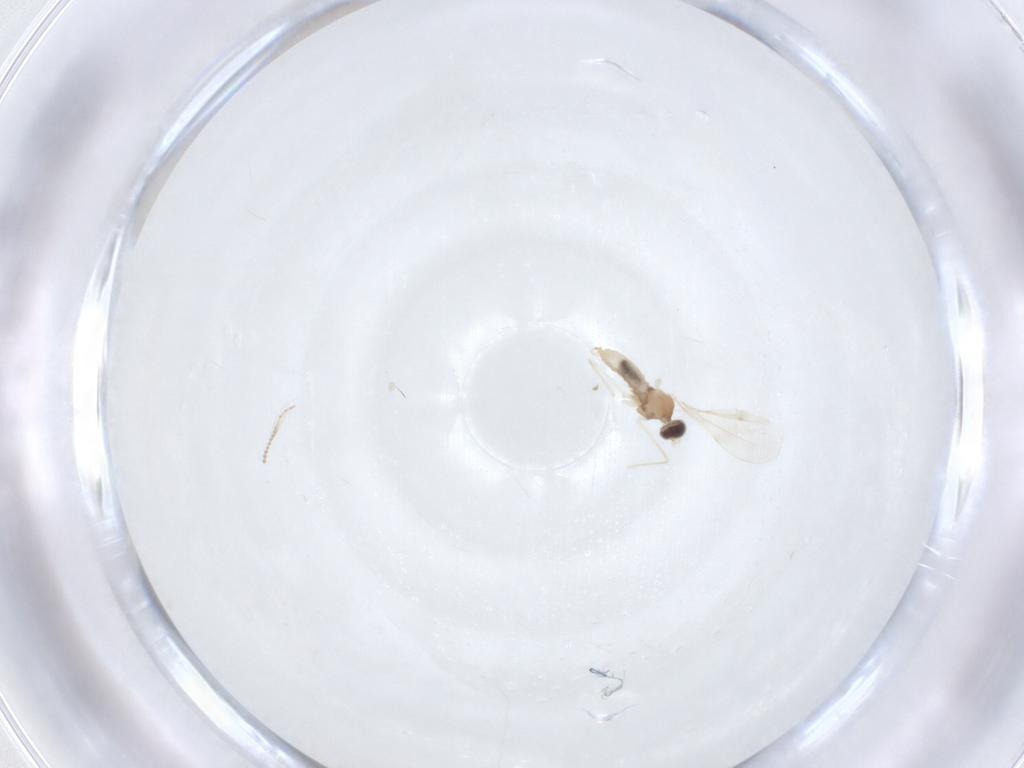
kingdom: Animalia
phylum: Arthropoda
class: Insecta
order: Diptera
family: Cecidomyiidae
